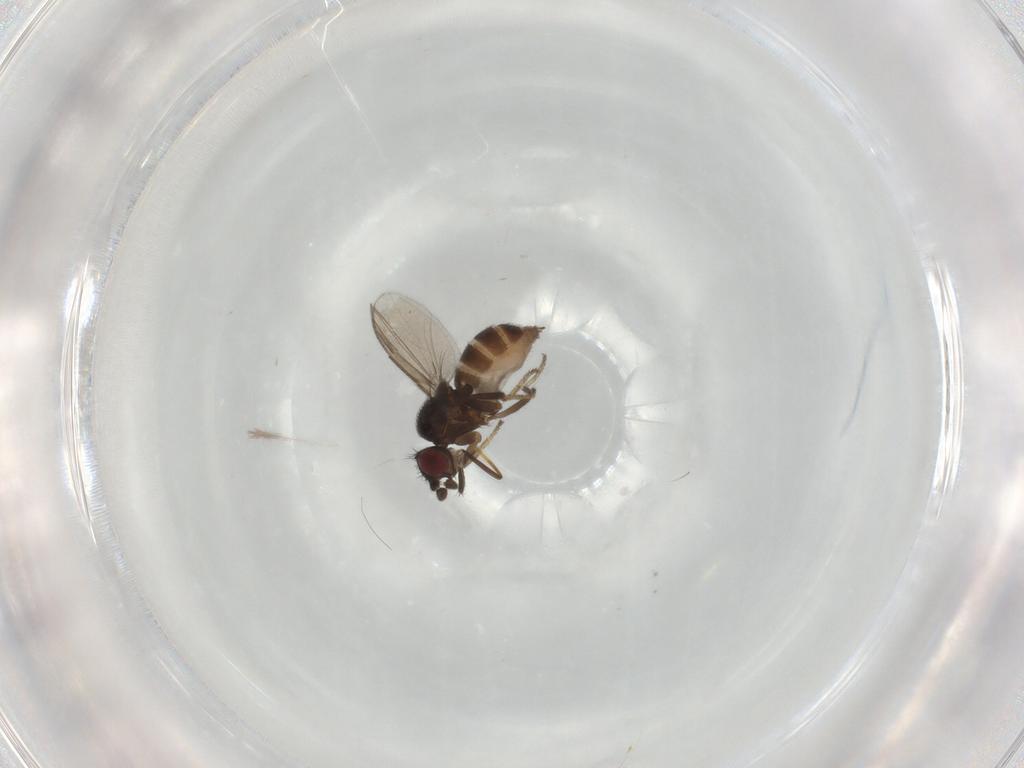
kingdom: Animalia
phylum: Arthropoda
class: Insecta
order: Diptera
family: Milichiidae
